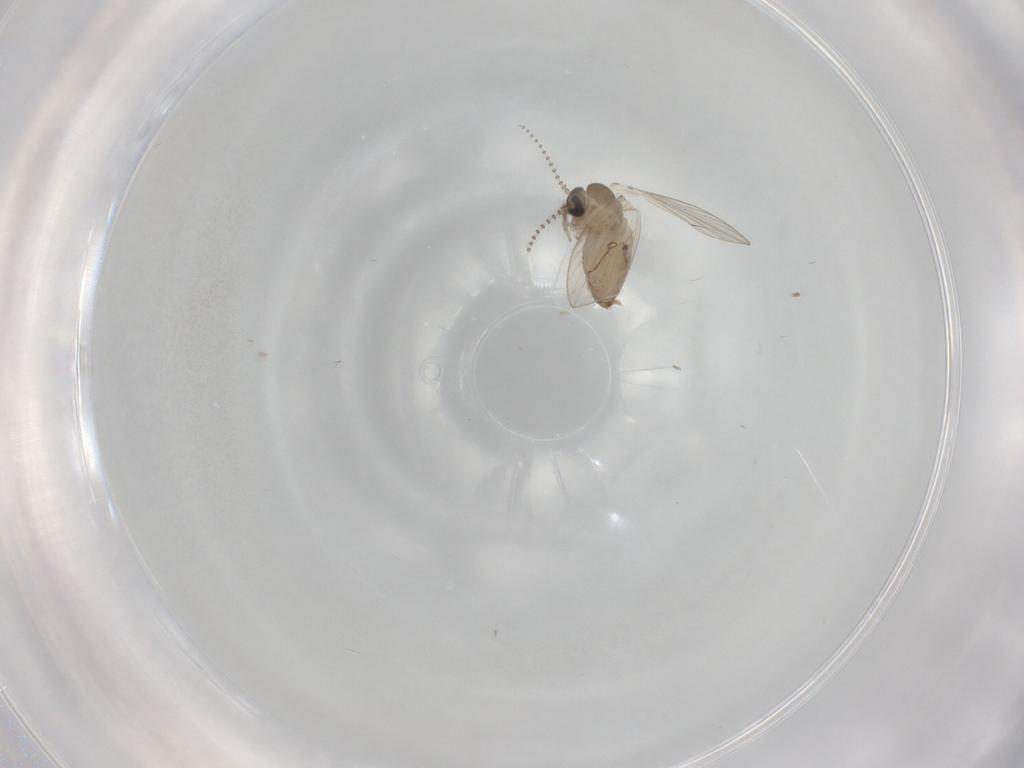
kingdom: Animalia
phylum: Arthropoda
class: Insecta
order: Diptera
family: Psychodidae
